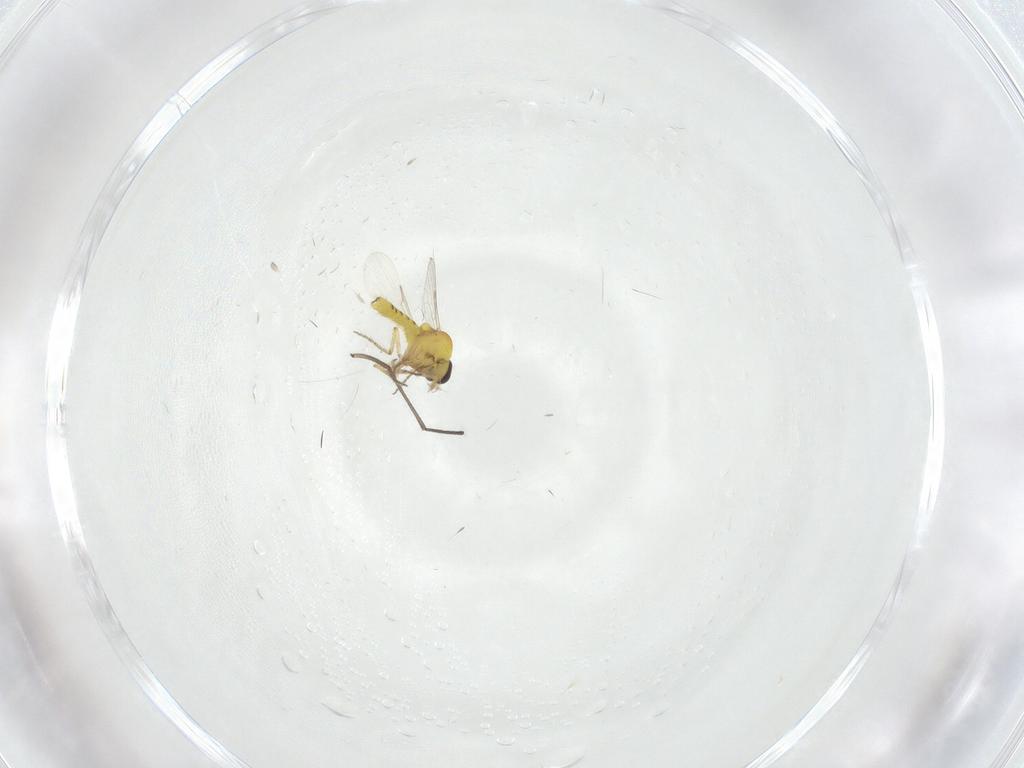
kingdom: Animalia
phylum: Arthropoda
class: Insecta
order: Diptera
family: Ceratopogonidae
